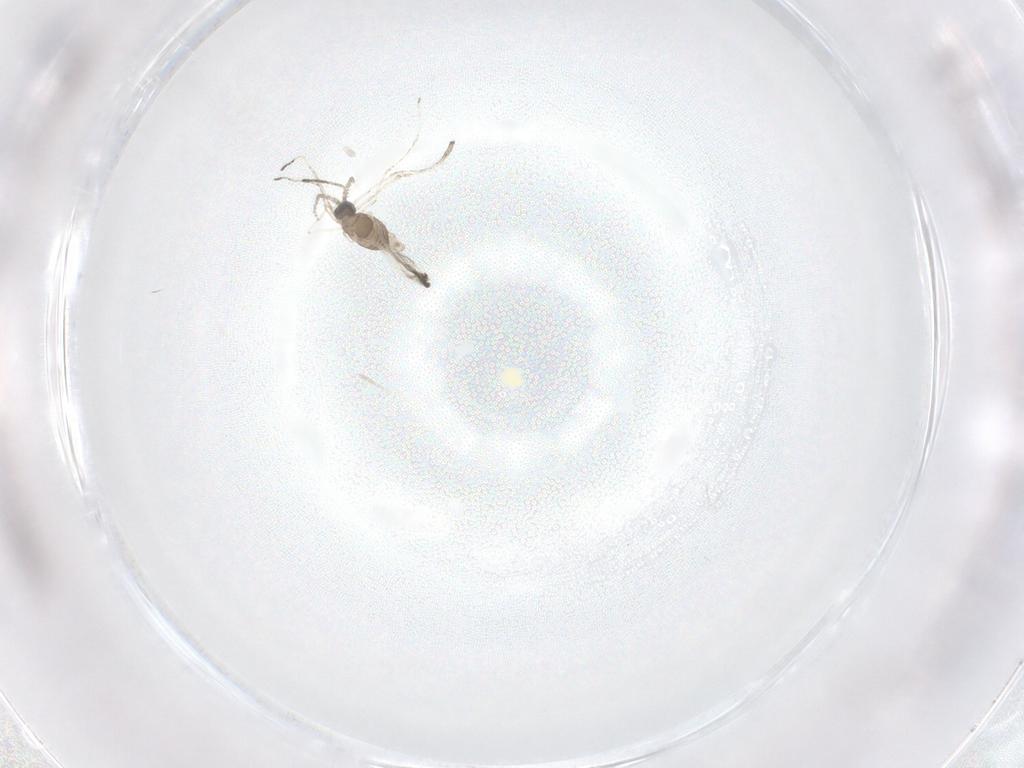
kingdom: Animalia
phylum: Arthropoda
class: Insecta
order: Diptera
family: Cecidomyiidae
